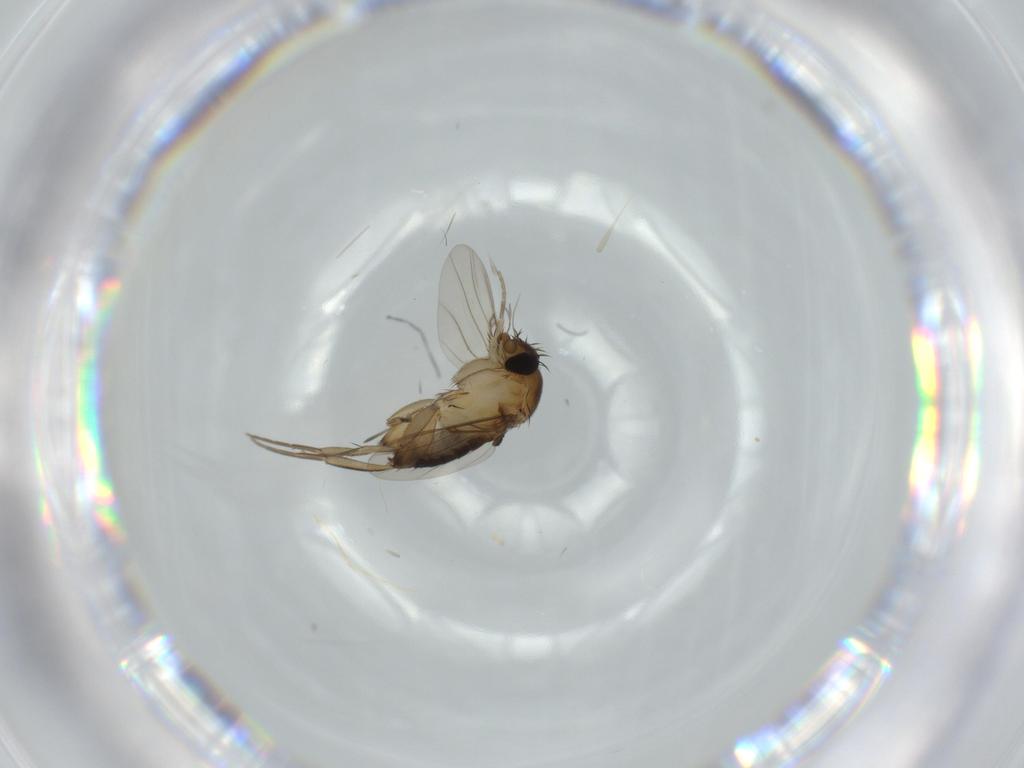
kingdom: Animalia
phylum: Arthropoda
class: Insecta
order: Diptera
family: Phoridae
